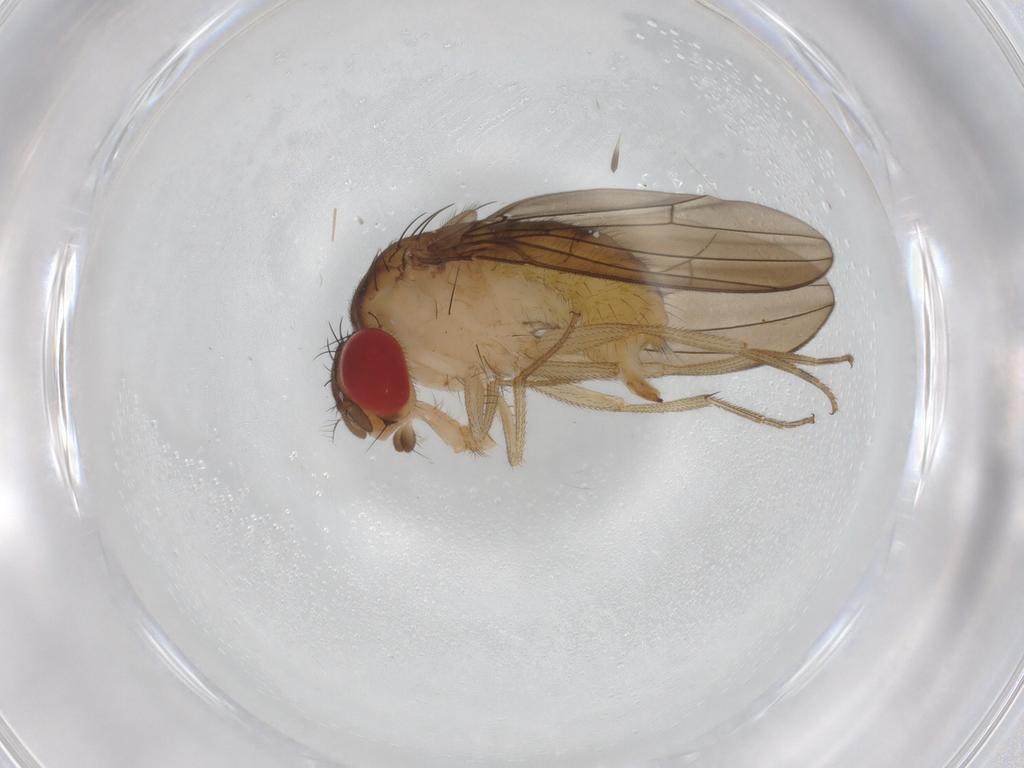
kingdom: Animalia
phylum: Arthropoda
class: Insecta
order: Diptera
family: Drosophilidae
